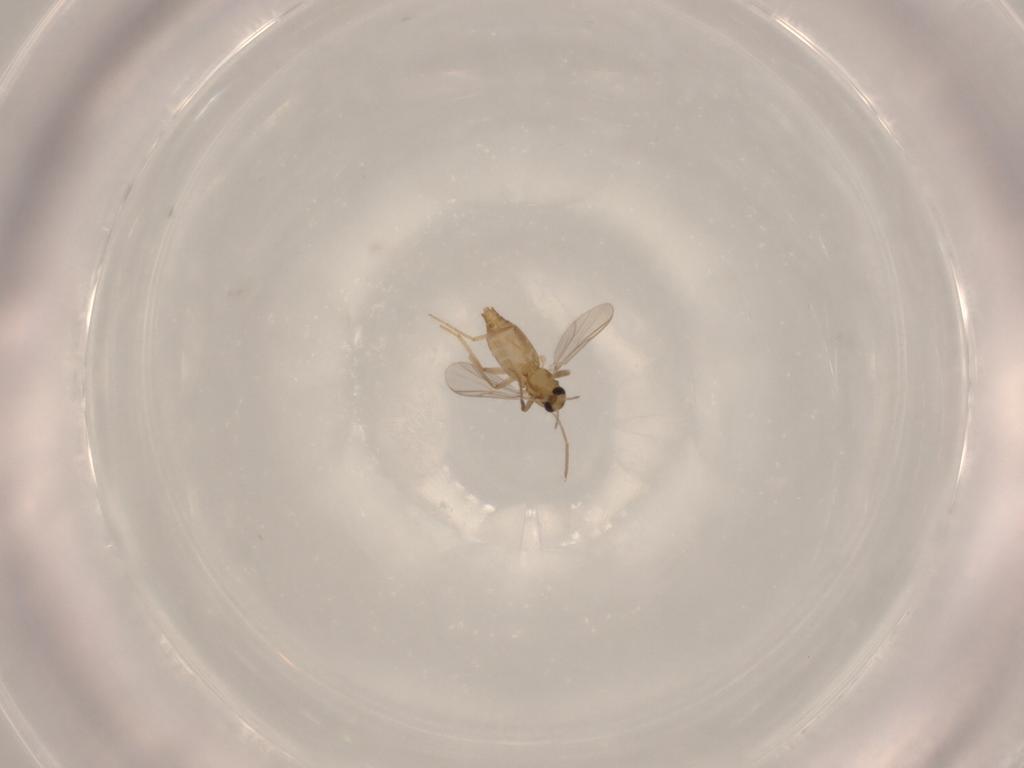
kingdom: Animalia
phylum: Arthropoda
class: Insecta
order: Diptera
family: Chironomidae
